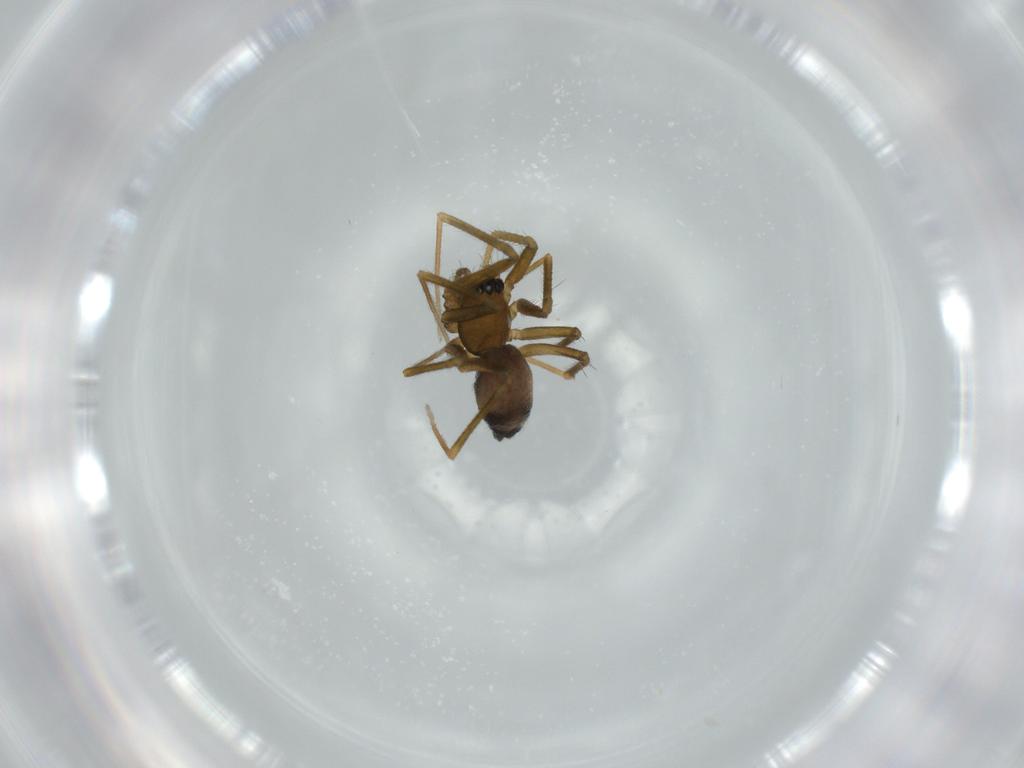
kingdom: Animalia
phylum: Arthropoda
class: Arachnida
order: Araneae
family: Linyphiidae
